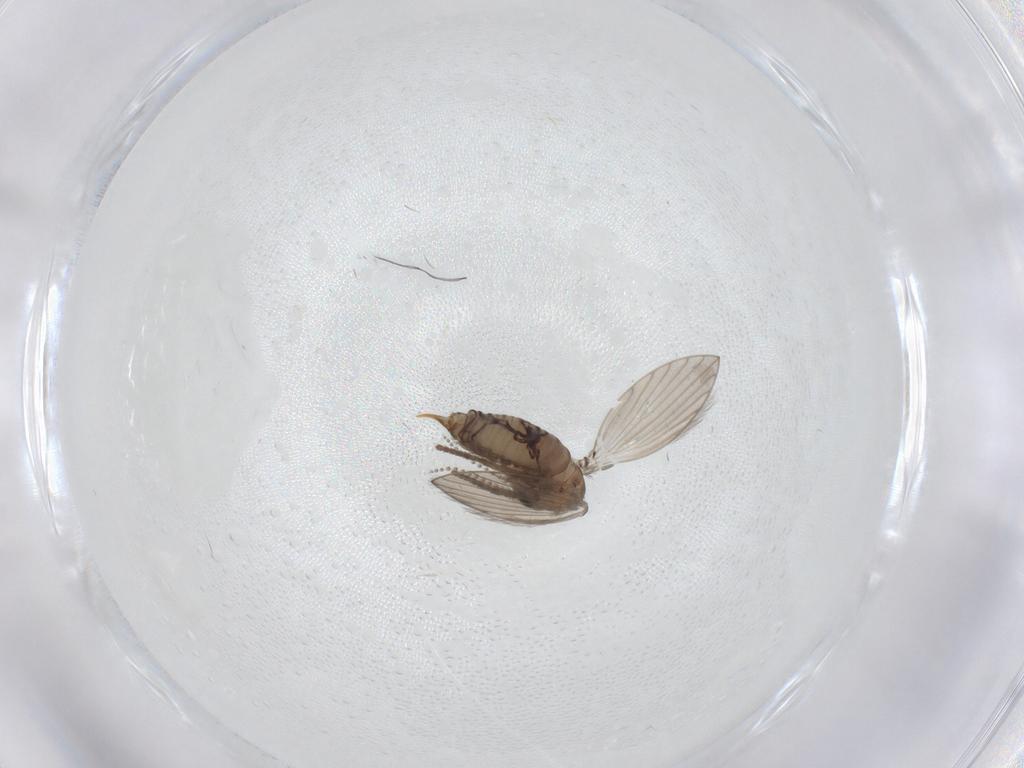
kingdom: Animalia
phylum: Arthropoda
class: Insecta
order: Diptera
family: Psychodidae
